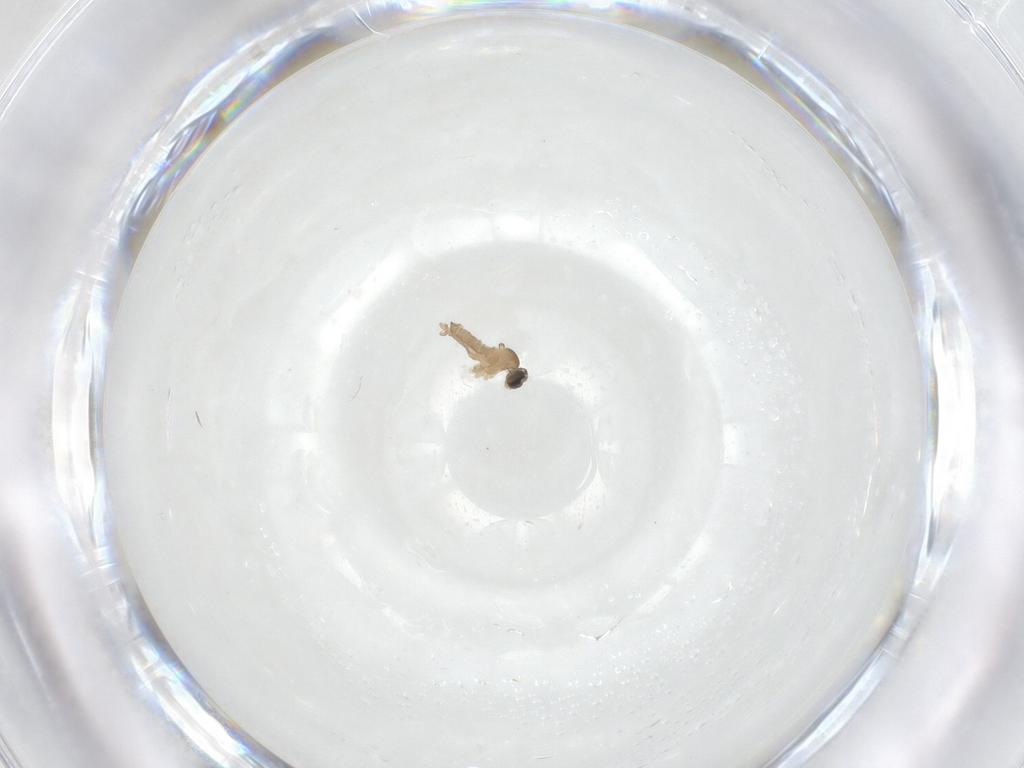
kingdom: Animalia
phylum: Arthropoda
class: Insecta
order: Diptera
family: Cecidomyiidae
